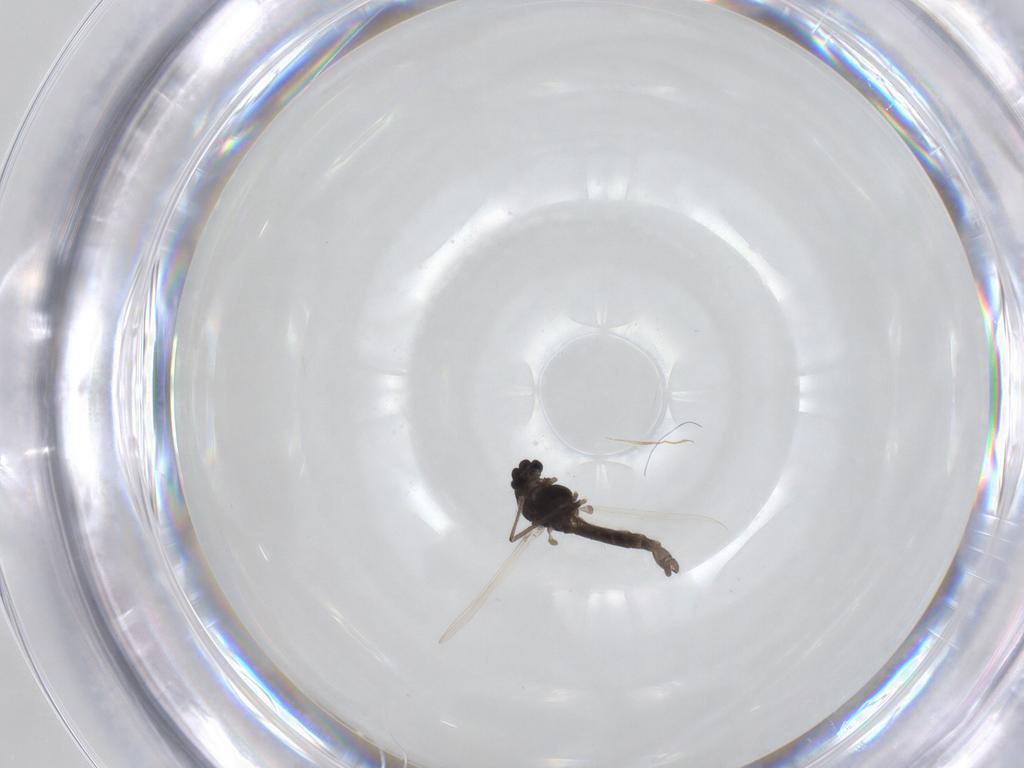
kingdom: Animalia
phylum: Arthropoda
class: Insecta
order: Diptera
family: Chironomidae
